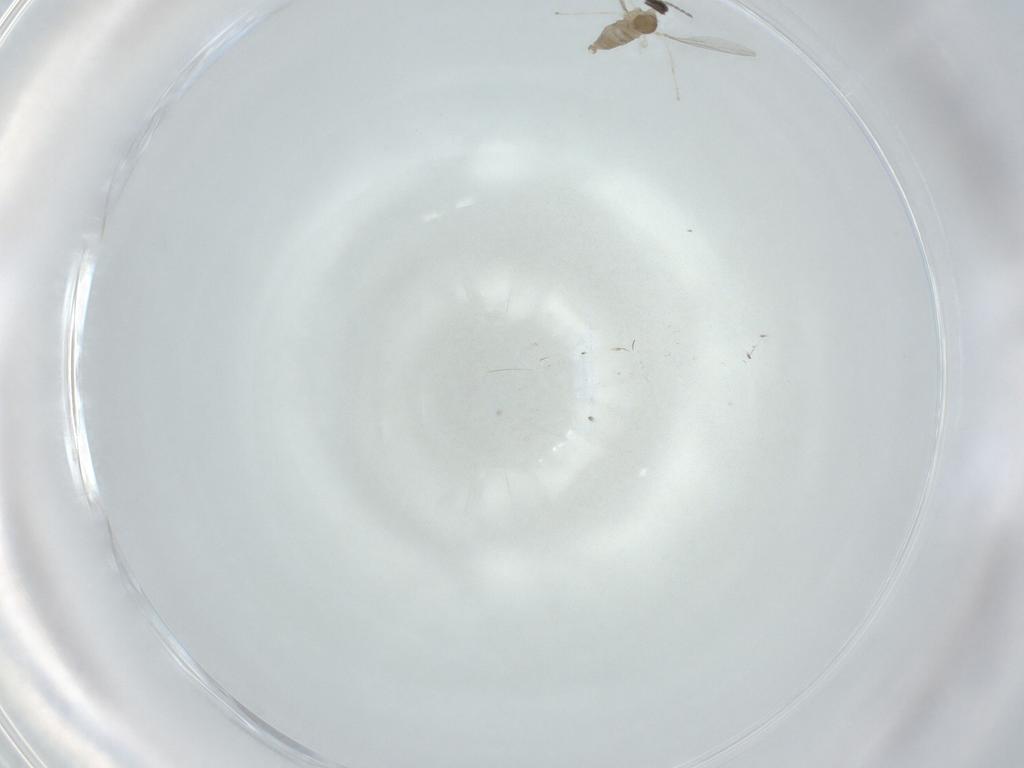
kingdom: Animalia
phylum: Arthropoda
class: Insecta
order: Diptera
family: Cecidomyiidae
